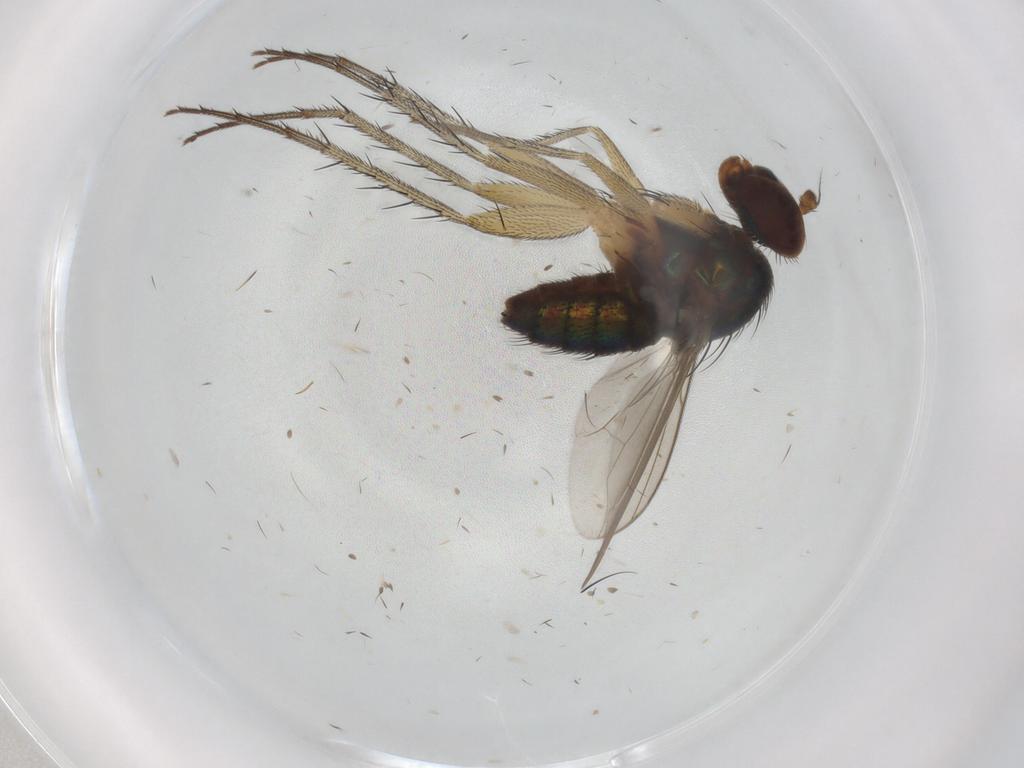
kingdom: Animalia
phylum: Arthropoda
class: Insecta
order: Diptera
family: Dolichopodidae
